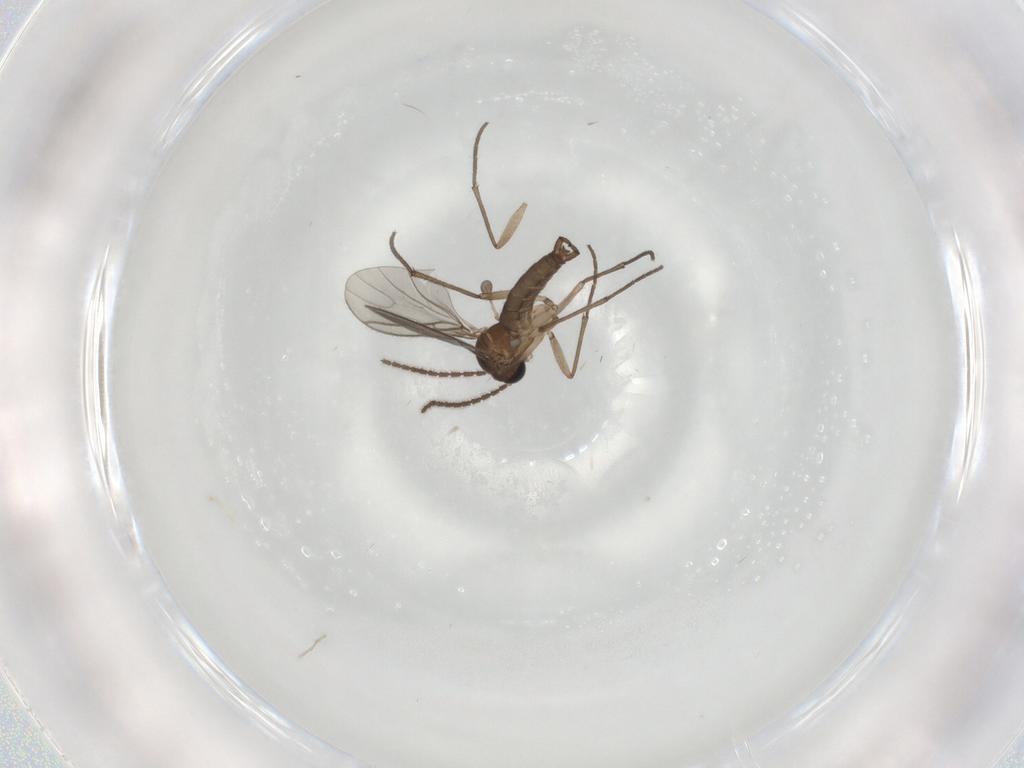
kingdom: Animalia
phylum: Arthropoda
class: Insecta
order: Diptera
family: Sciaridae
